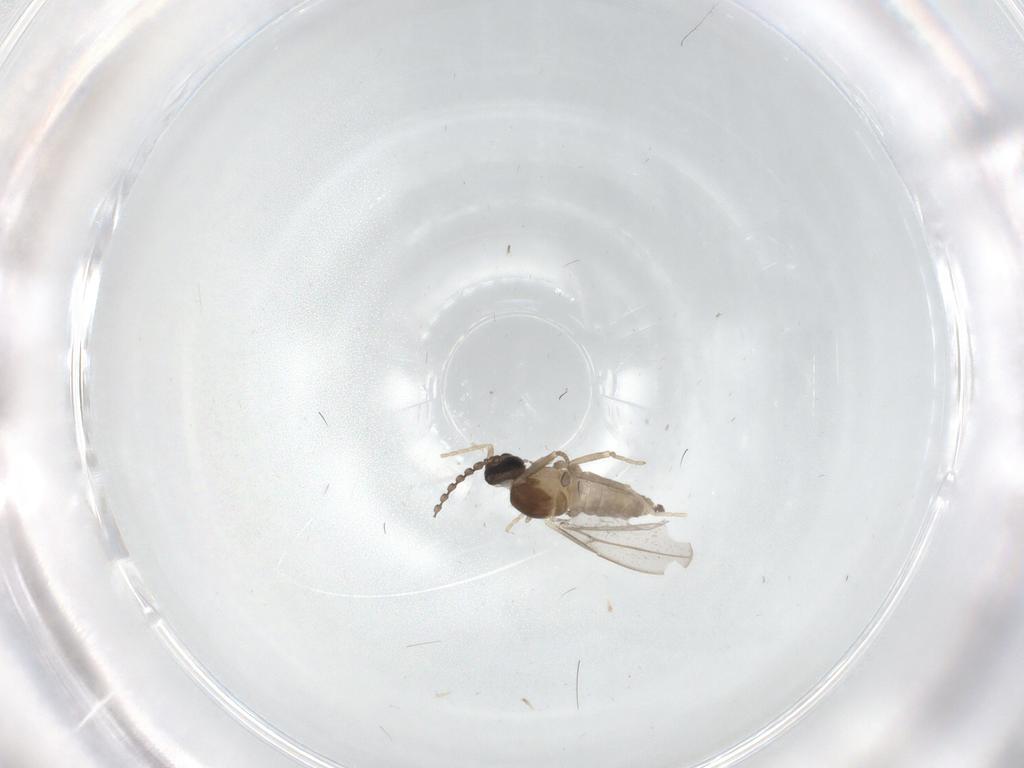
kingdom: Animalia
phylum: Arthropoda
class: Insecta
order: Diptera
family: Cecidomyiidae
